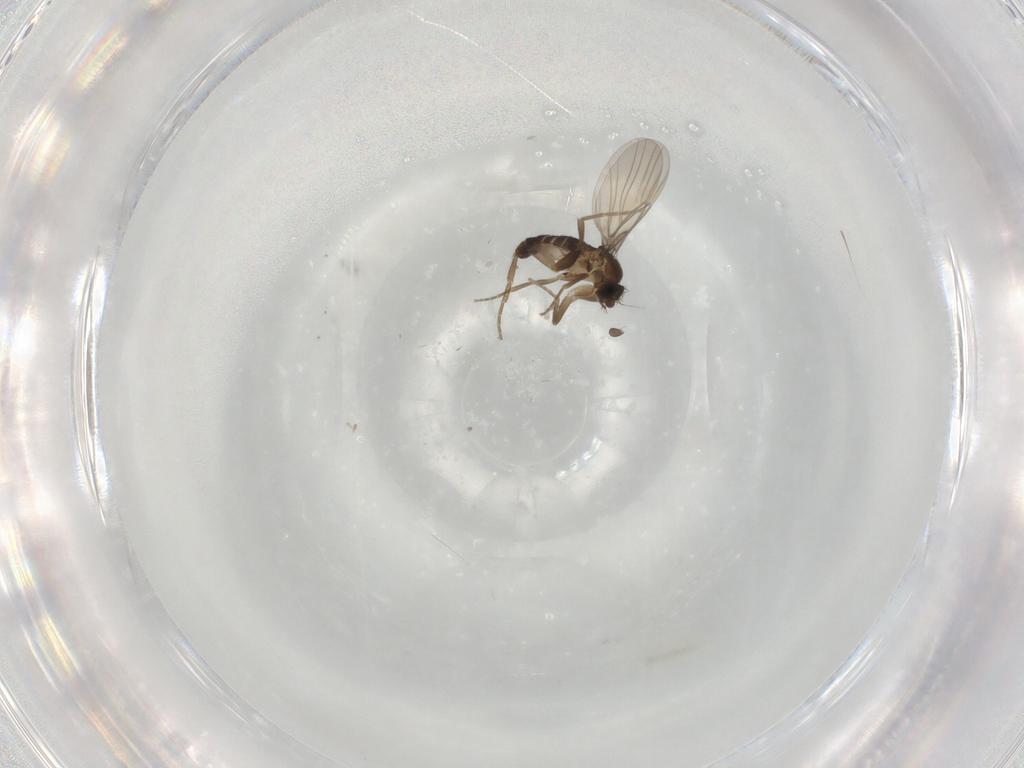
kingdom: Animalia
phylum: Arthropoda
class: Insecta
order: Diptera
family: Phoridae
